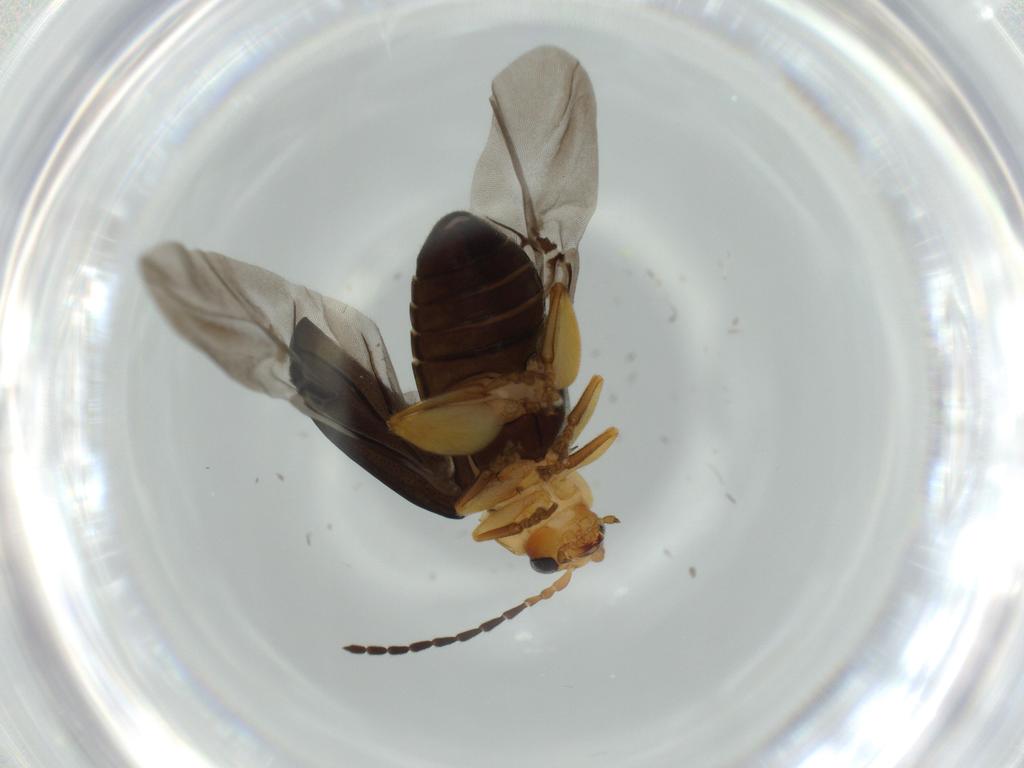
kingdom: Animalia
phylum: Arthropoda
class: Insecta
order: Coleoptera
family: Chrysomelidae
